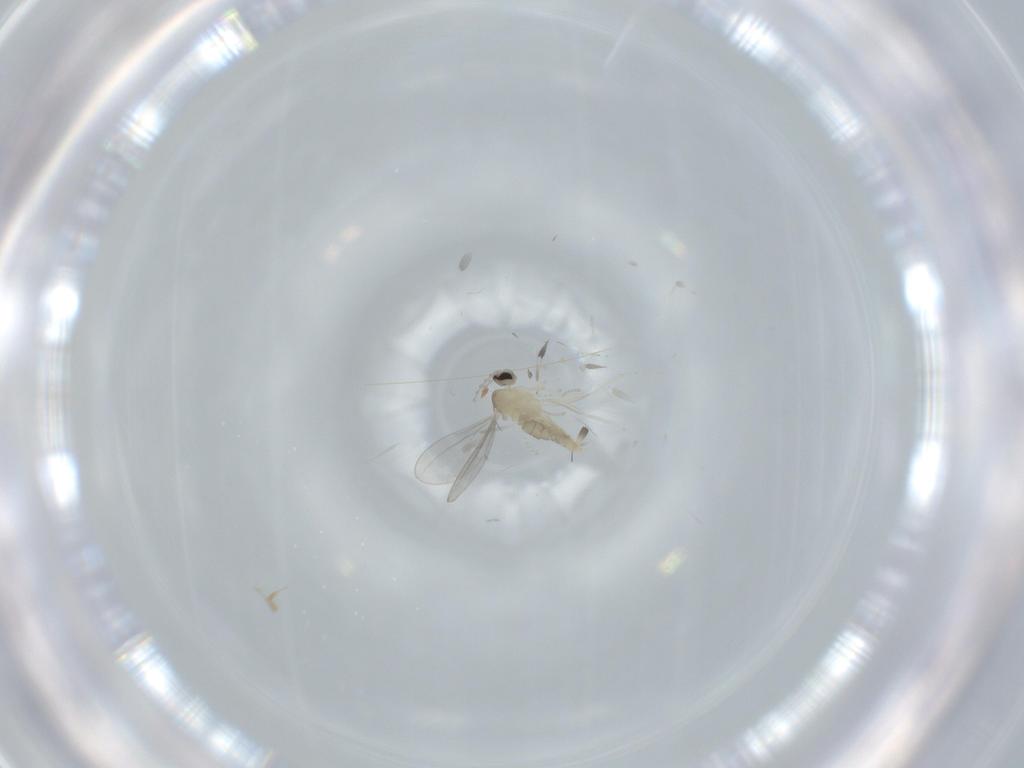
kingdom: Animalia
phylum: Arthropoda
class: Insecta
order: Diptera
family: Cecidomyiidae
